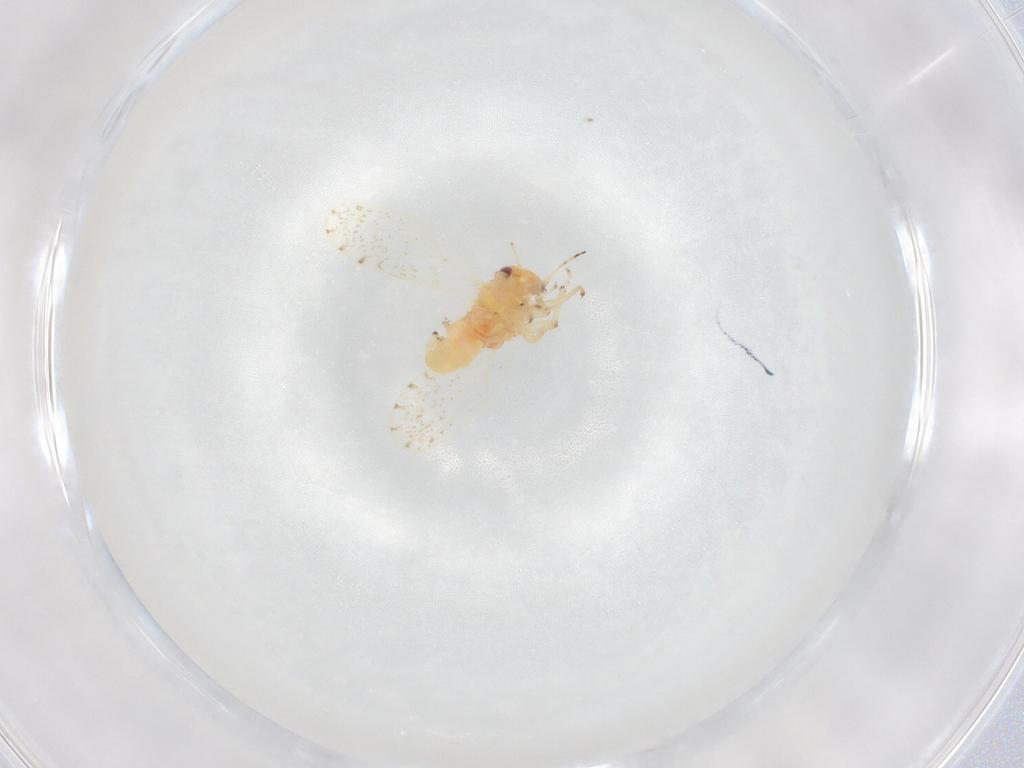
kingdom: Animalia
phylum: Arthropoda
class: Insecta
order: Hemiptera
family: Psyllidae
